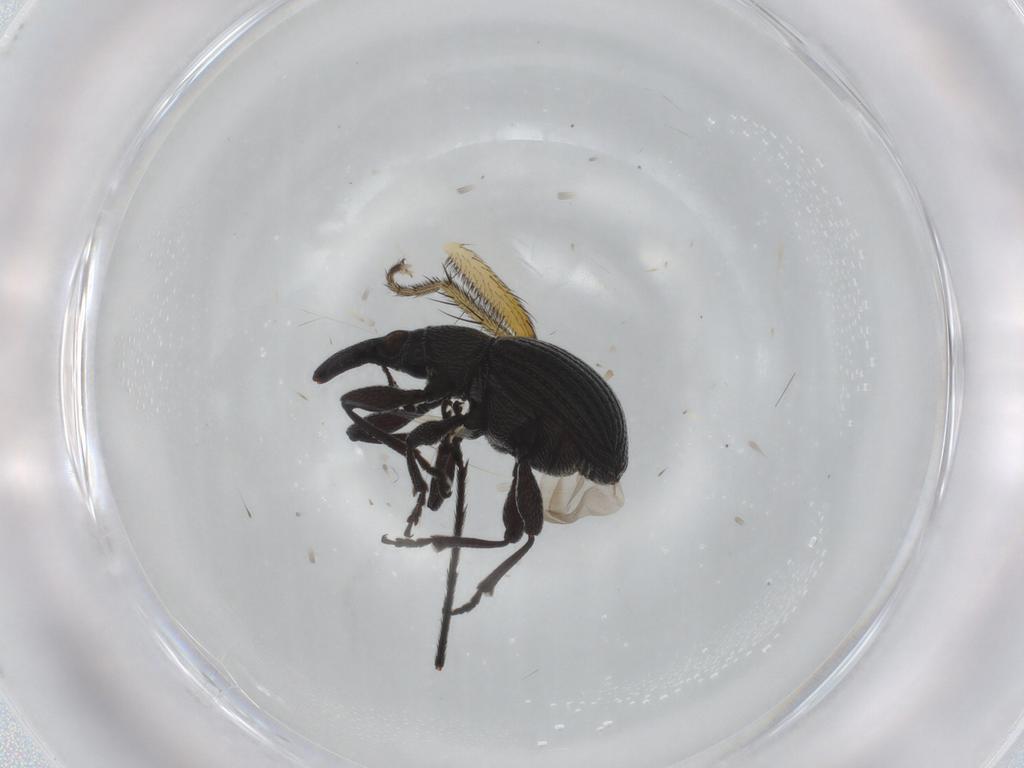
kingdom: Animalia
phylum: Arthropoda
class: Insecta
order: Coleoptera
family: Brentidae
